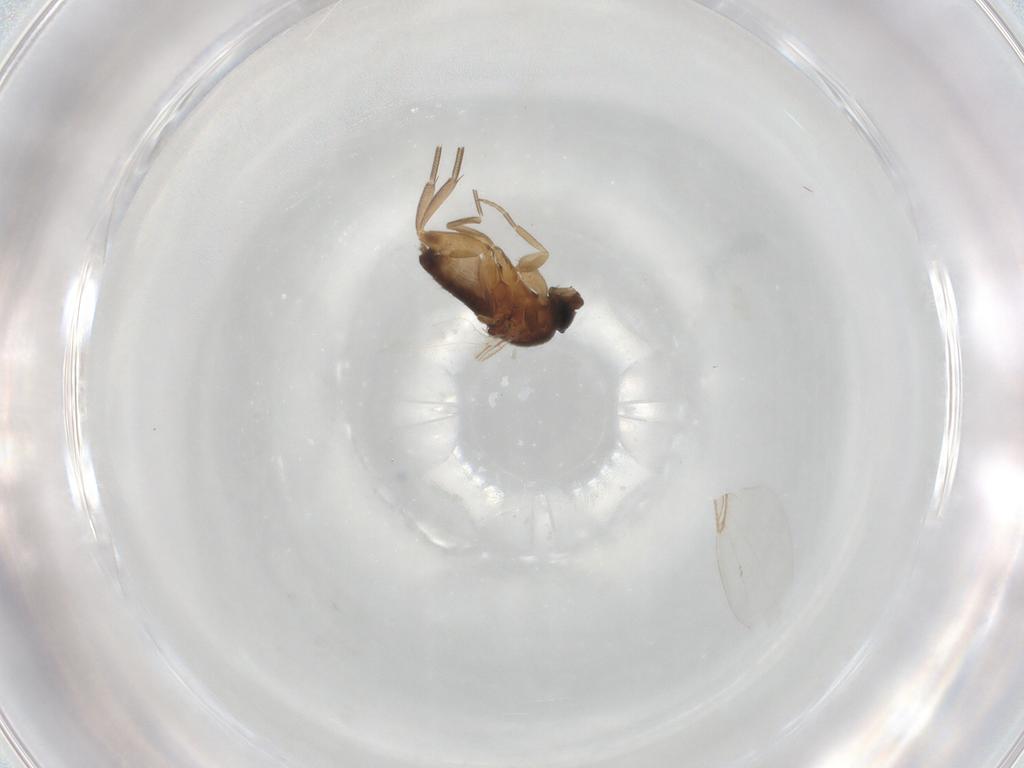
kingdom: Animalia
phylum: Arthropoda
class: Insecta
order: Diptera
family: Phoridae
